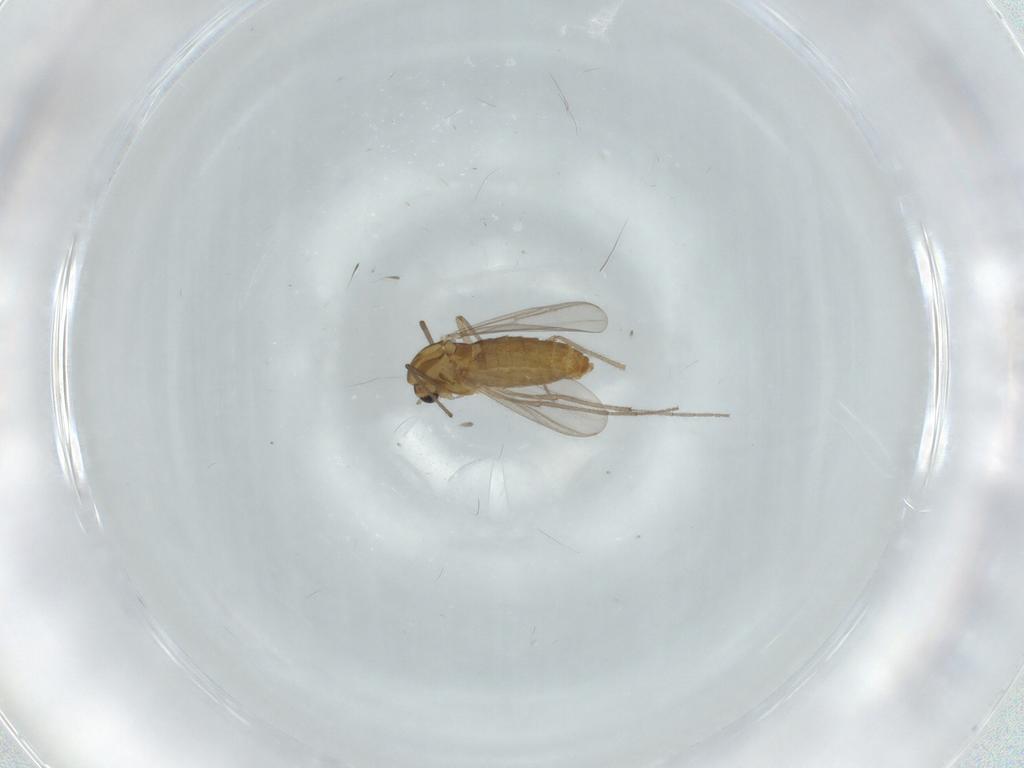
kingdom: Animalia
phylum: Arthropoda
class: Insecta
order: Diptera
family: Chironomidae
